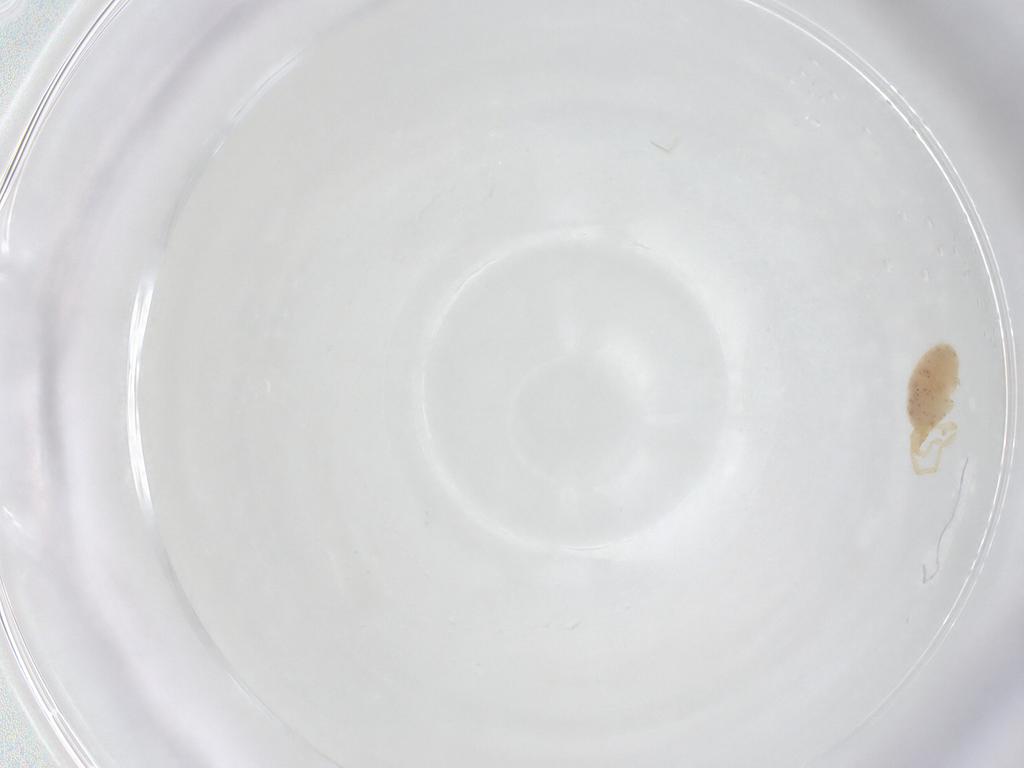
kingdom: Animalia
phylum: Arthropoda
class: Arachnida
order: Trombidiformes
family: Erythraeidae
